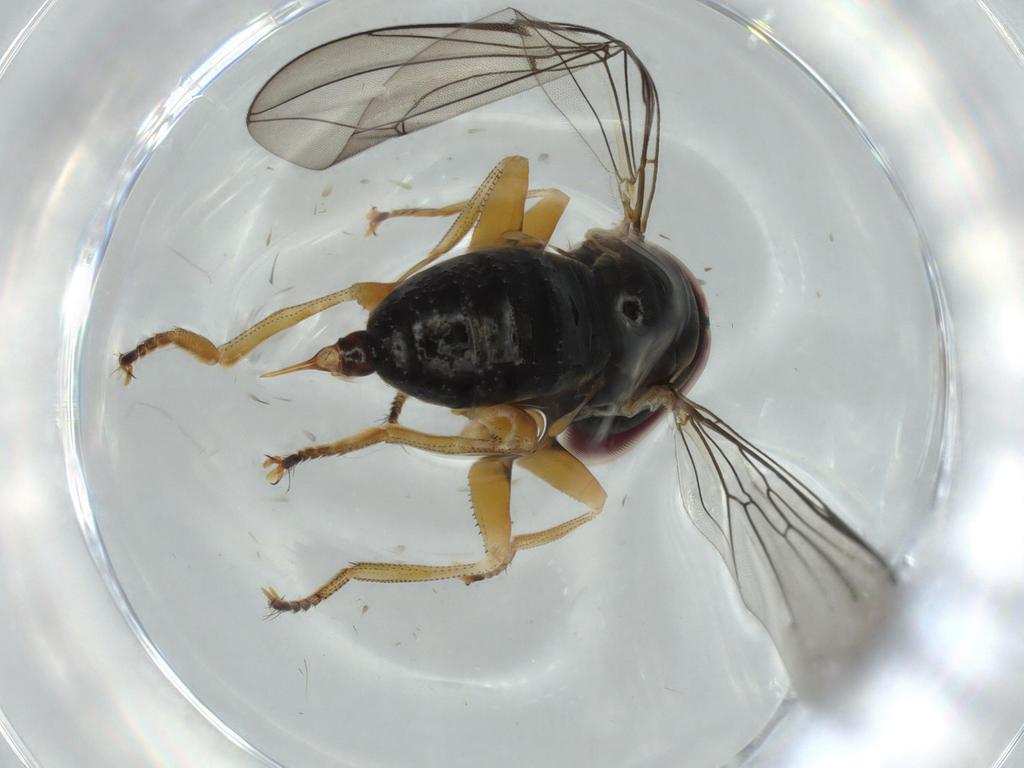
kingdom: Animalia
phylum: Arthropoda
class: Insecta
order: Diptera
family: Pipunculidae
